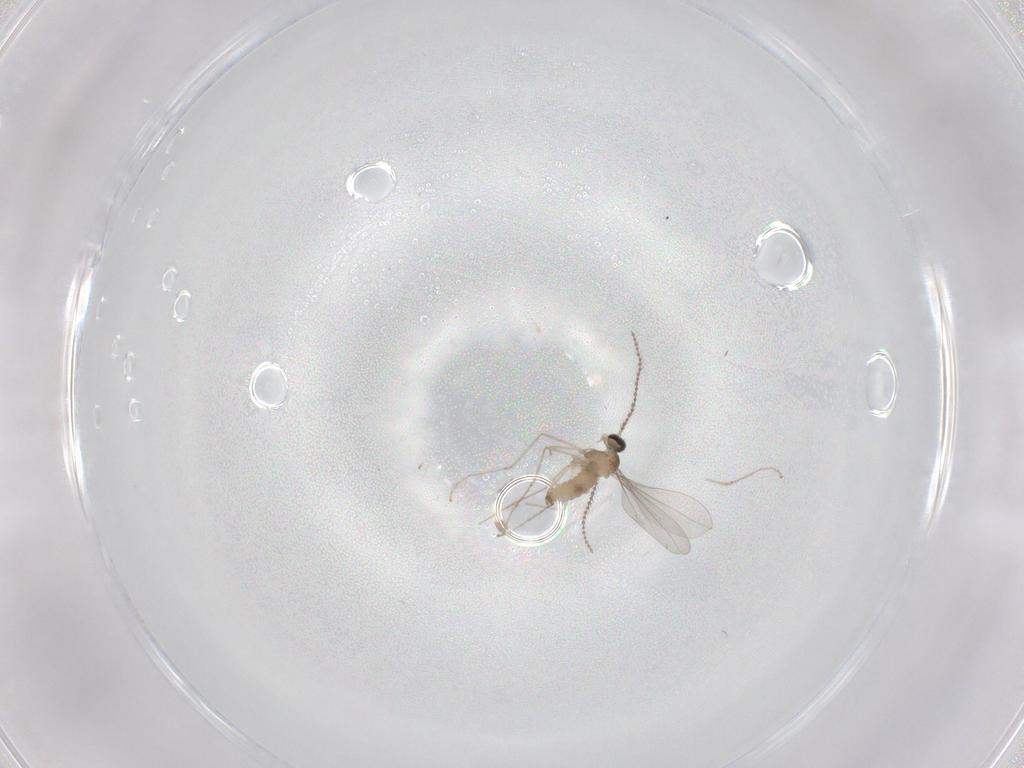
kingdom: Animalia
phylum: Arthropoda
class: Insecta
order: Diptera
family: Cecidomyiidae
